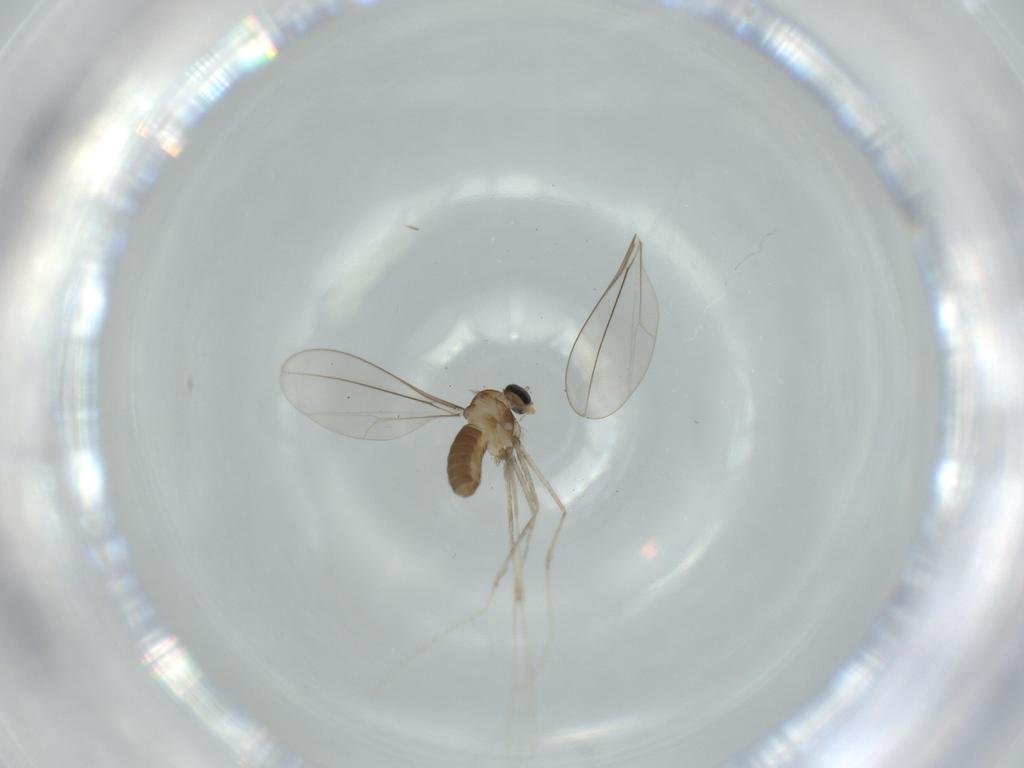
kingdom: Animalia
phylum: Arthropoda
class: Insecta
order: Diptera
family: Cecidomyiidae
